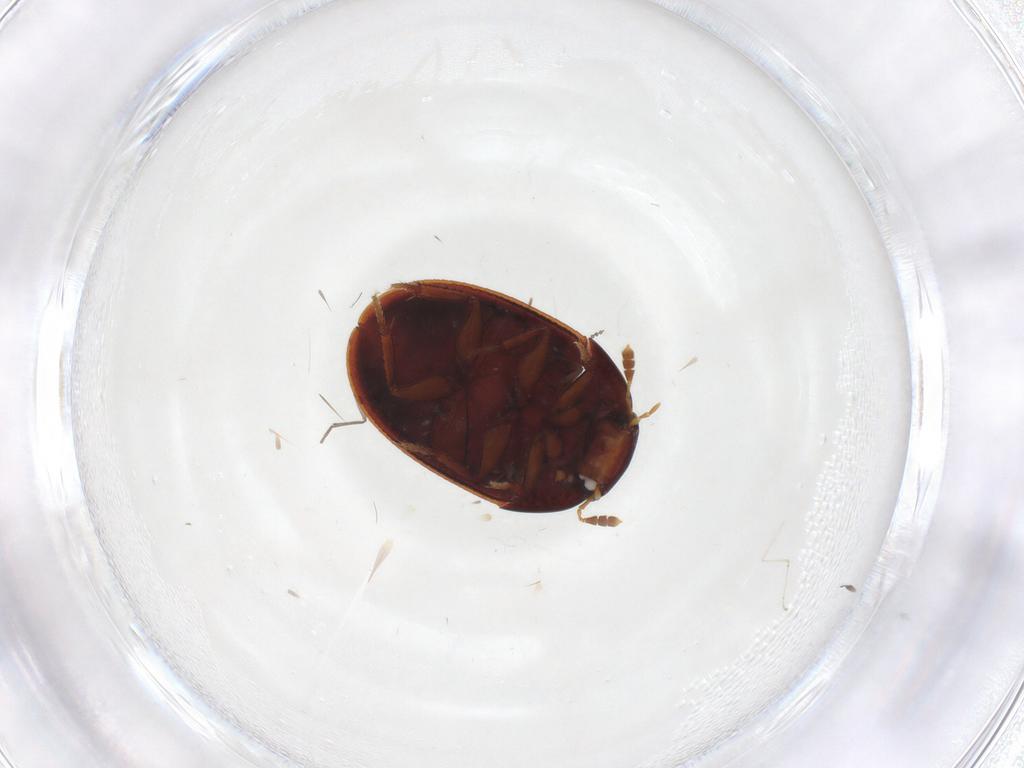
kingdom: Animalia
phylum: Arthropoda
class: Insecta
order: Coleoptera
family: Hydrophilidae
